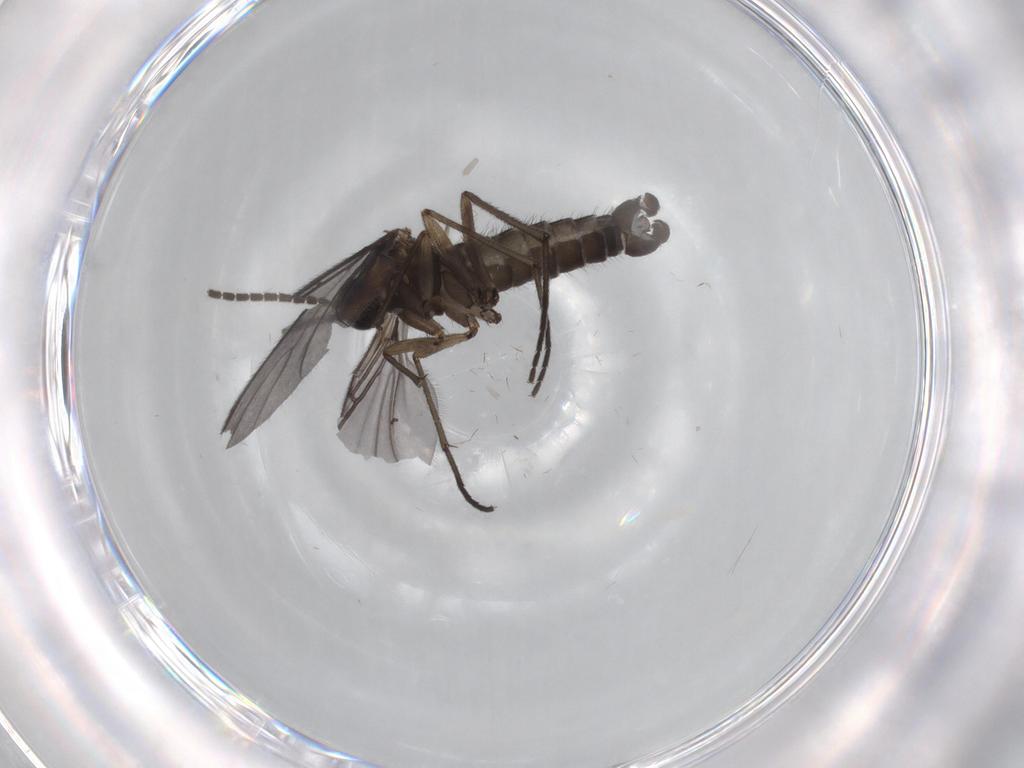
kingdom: Animalia
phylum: Arthropoda
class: Insecta
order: Diptera
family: Sciaridae
